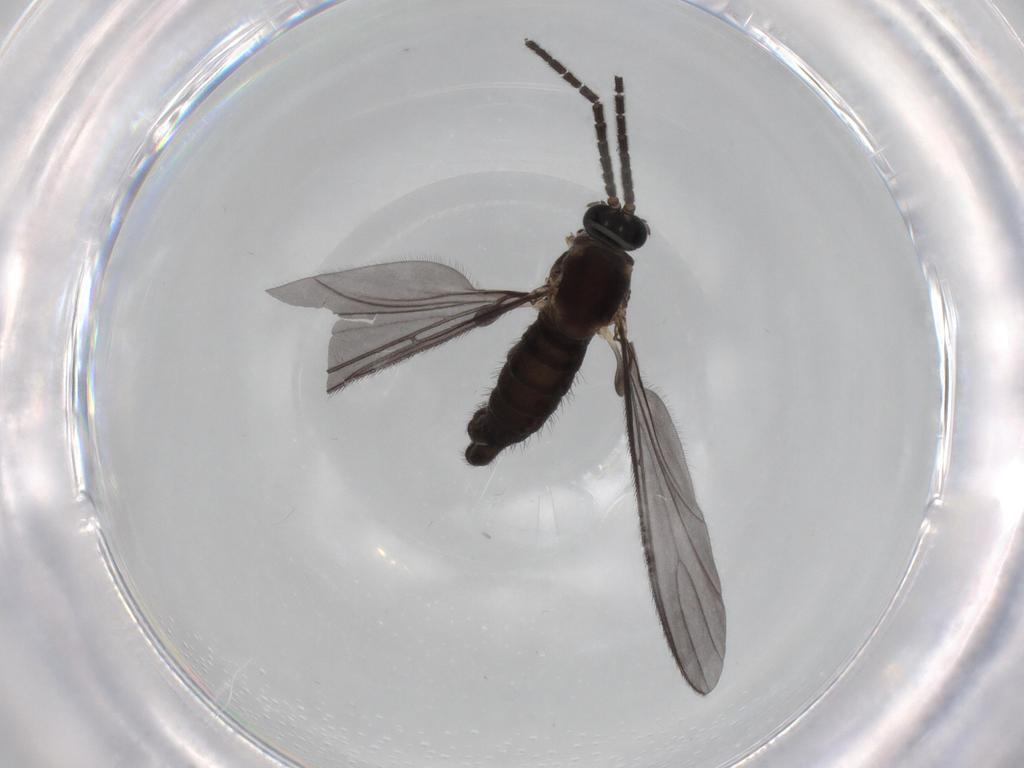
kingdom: Animalia
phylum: Arthropoda
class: Insecta
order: Diptera
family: Sciaridae
